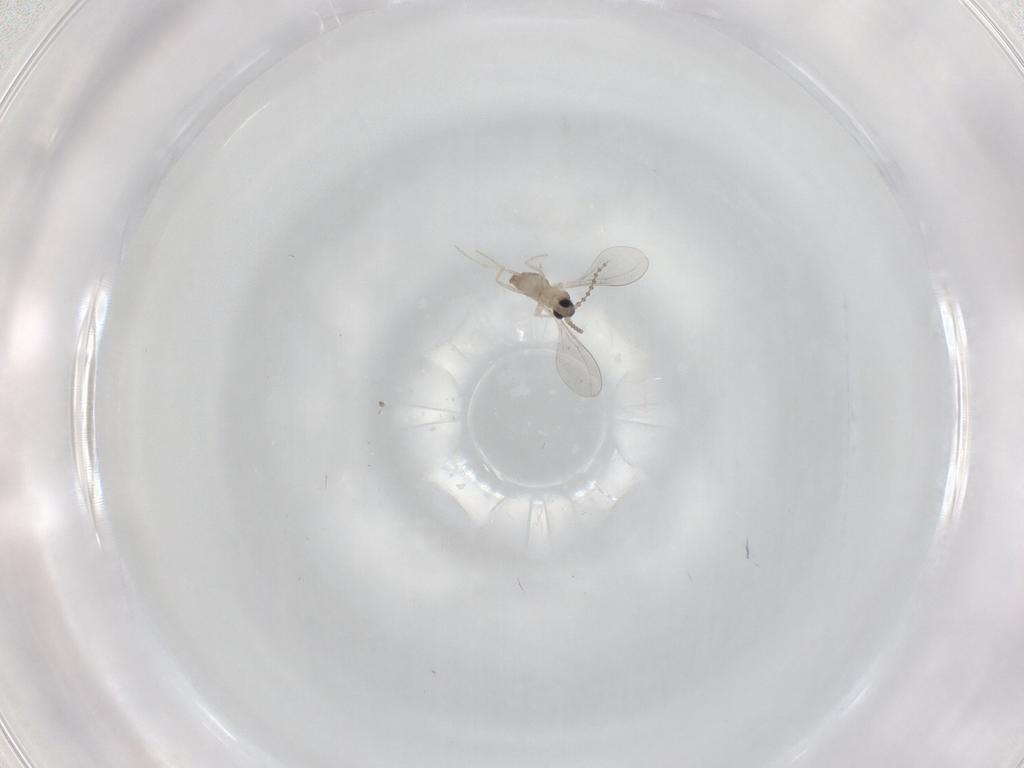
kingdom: Animalia
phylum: Arthropoda
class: Insecta
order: Diptera
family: Cecidomyiidae
